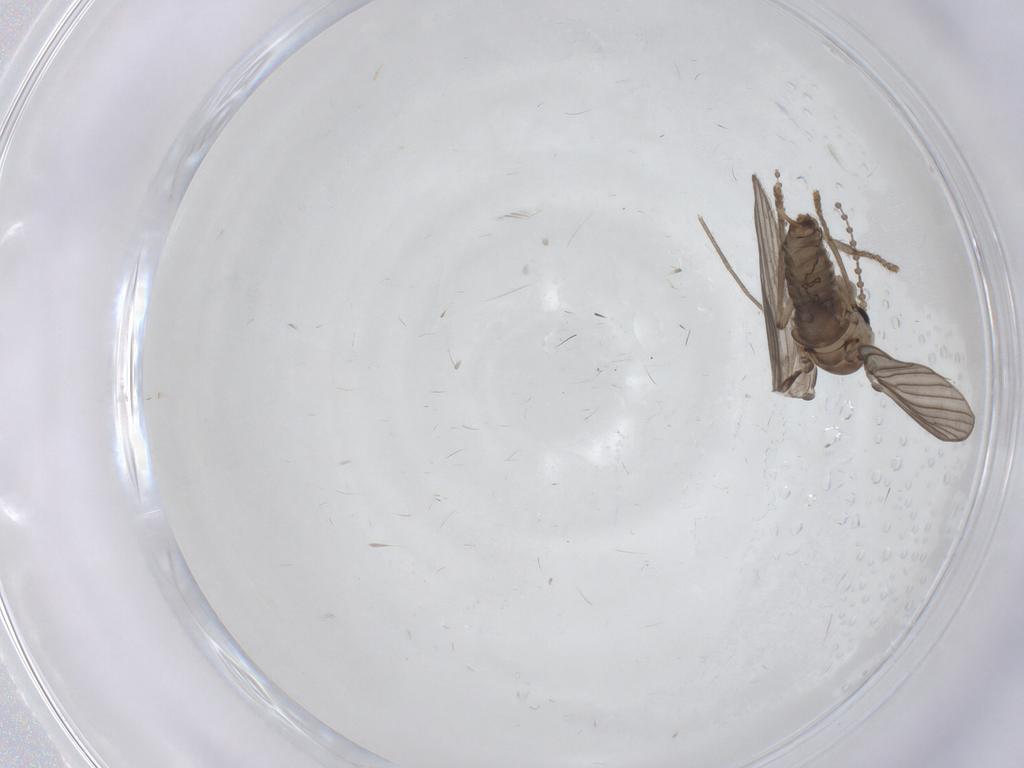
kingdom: Animalia
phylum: Arthropoda
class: Insecta
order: Diptera
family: Psychodidae
